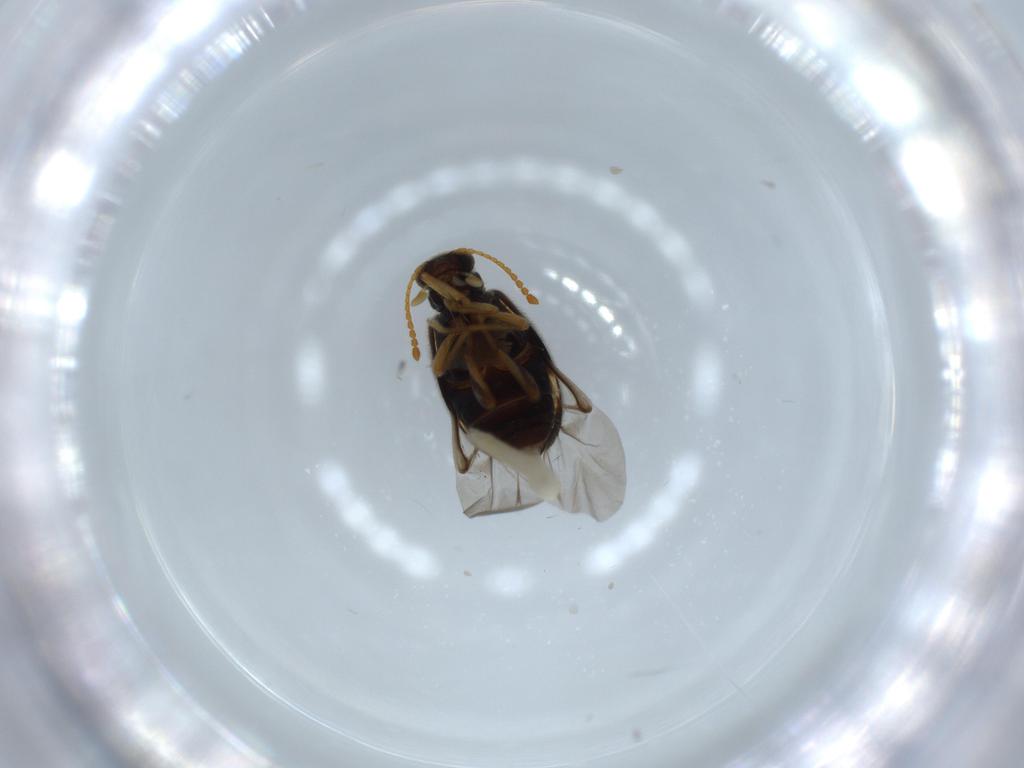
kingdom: Animalia
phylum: Arthropoda
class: Insecta
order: Coleoptera
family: Aderidae
